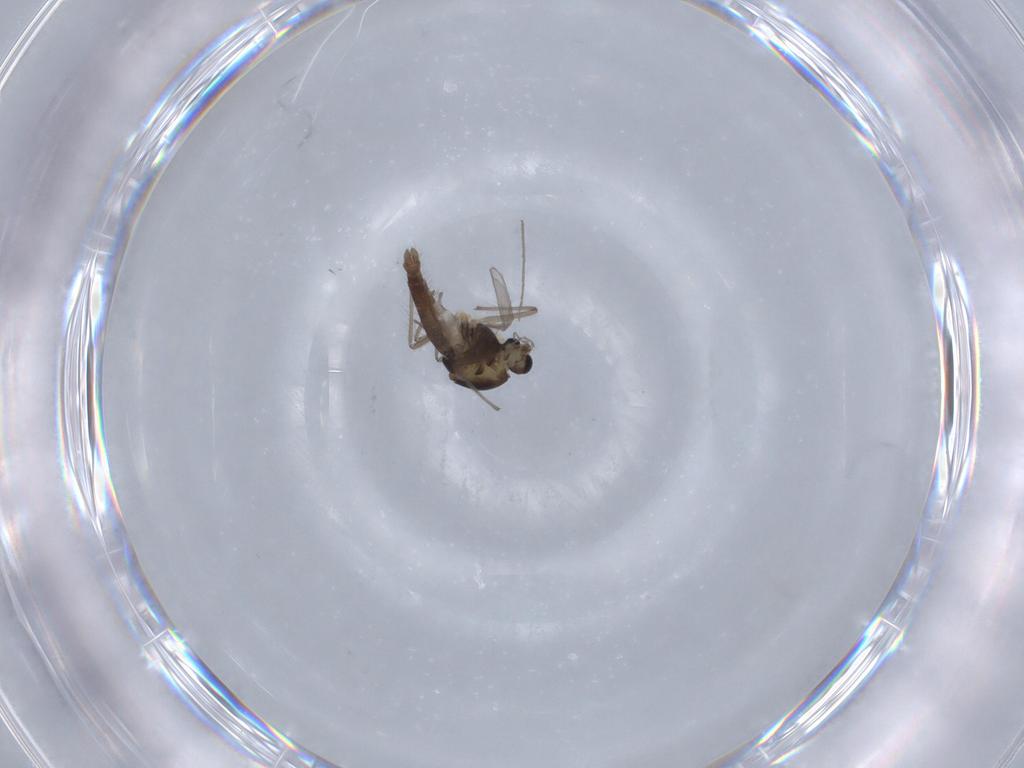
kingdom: Animalia
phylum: Arthropoda
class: Insecta
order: Diptera
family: Chironomidae
